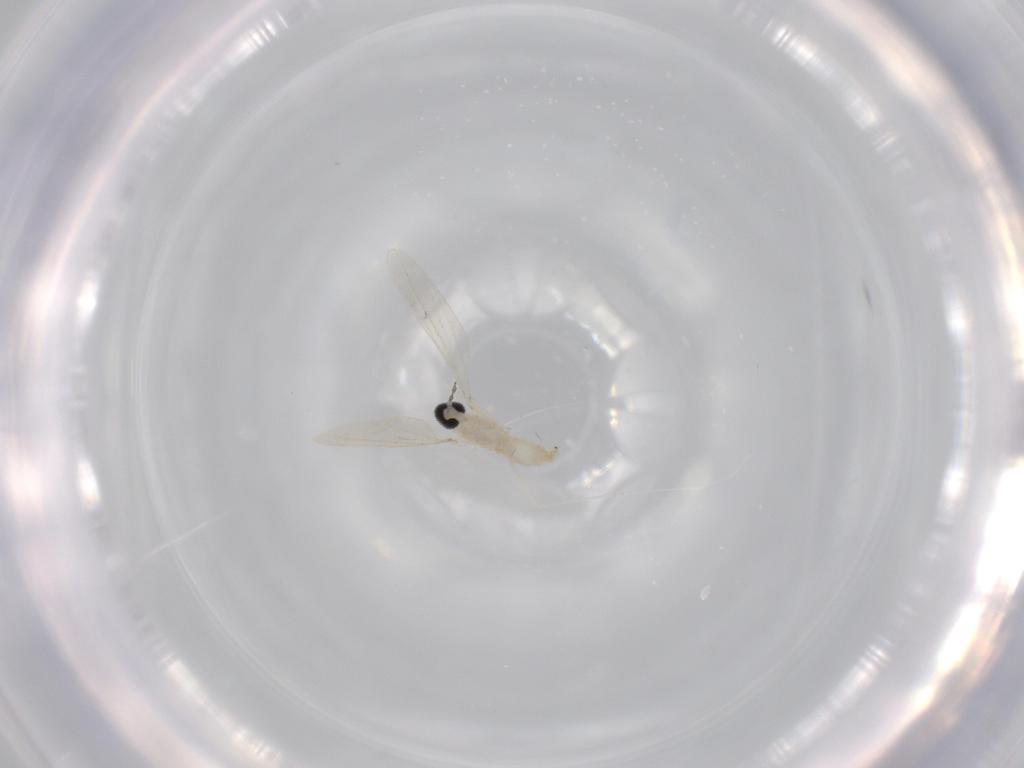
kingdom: Animalia
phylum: Arthropoda
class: Insecta
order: Diptera
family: Cecidomyiidae
